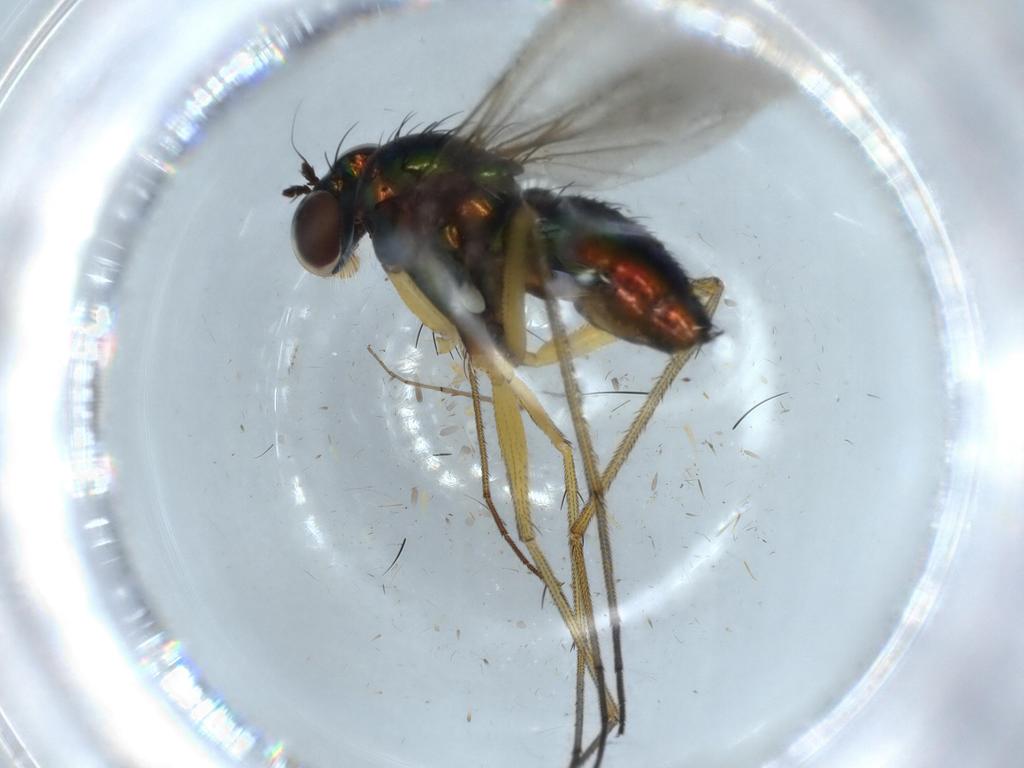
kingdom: Animalia
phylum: Arthropoda
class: Insecta
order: Diptera
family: Dolichopodidae
